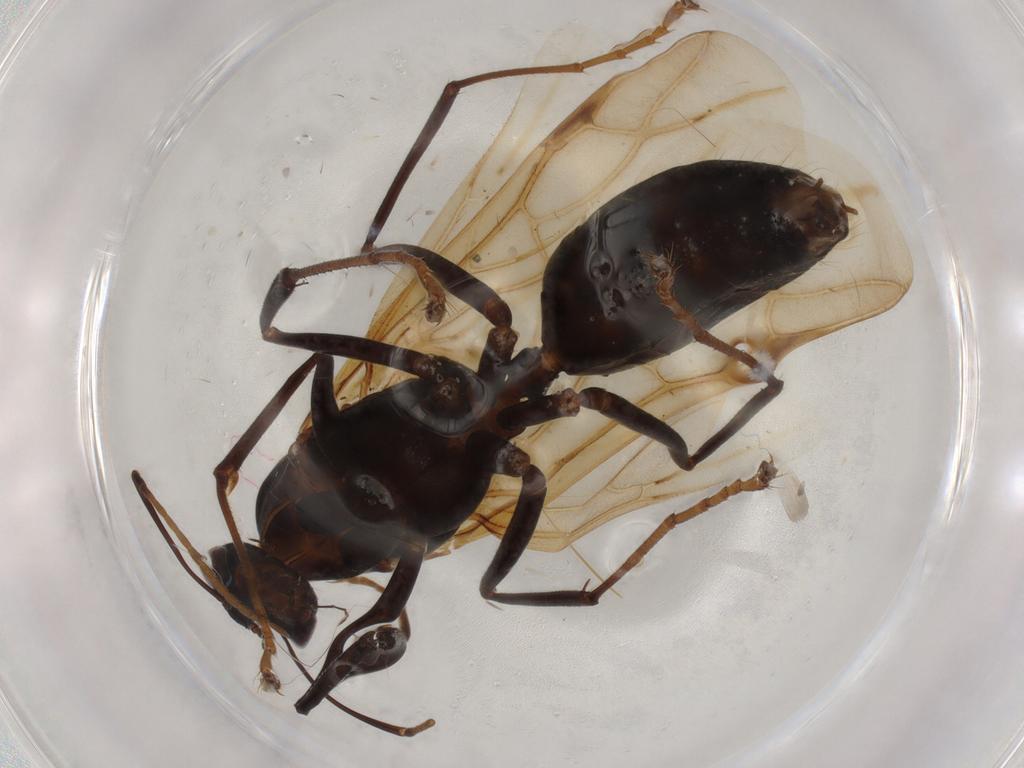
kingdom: Animalia
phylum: Arthropoda
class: Insecta
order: Hymenoptera
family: Formicidae
